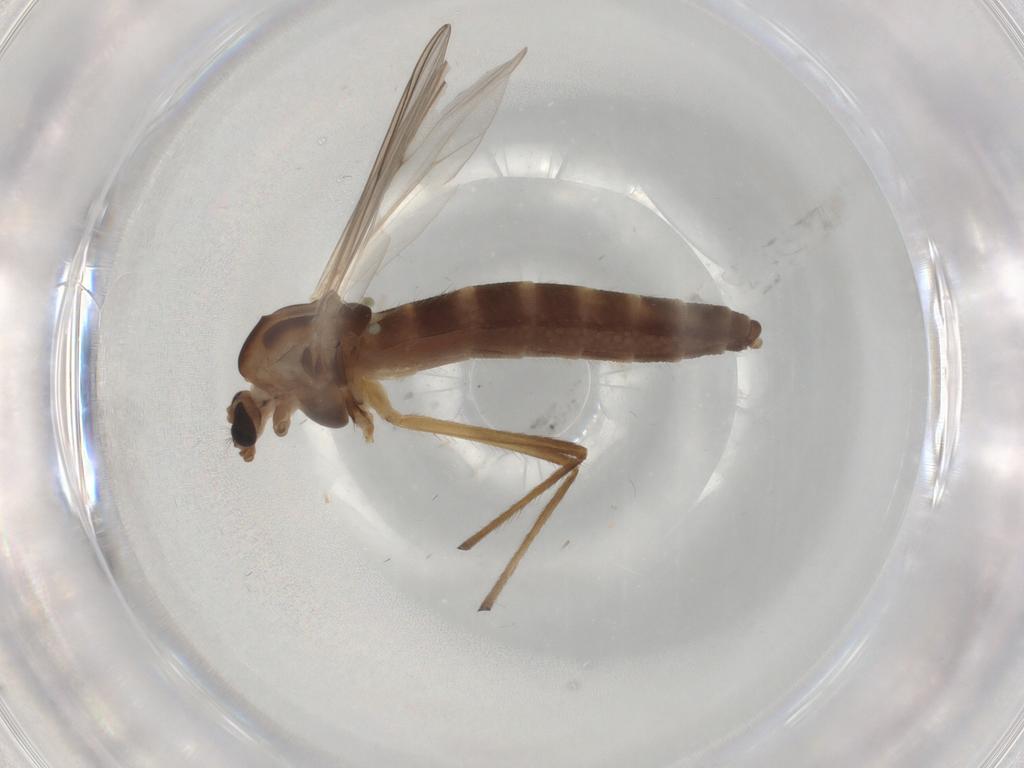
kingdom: Animalia
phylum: Arthropoda
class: Insecta
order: Diptera
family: Chironomidae
